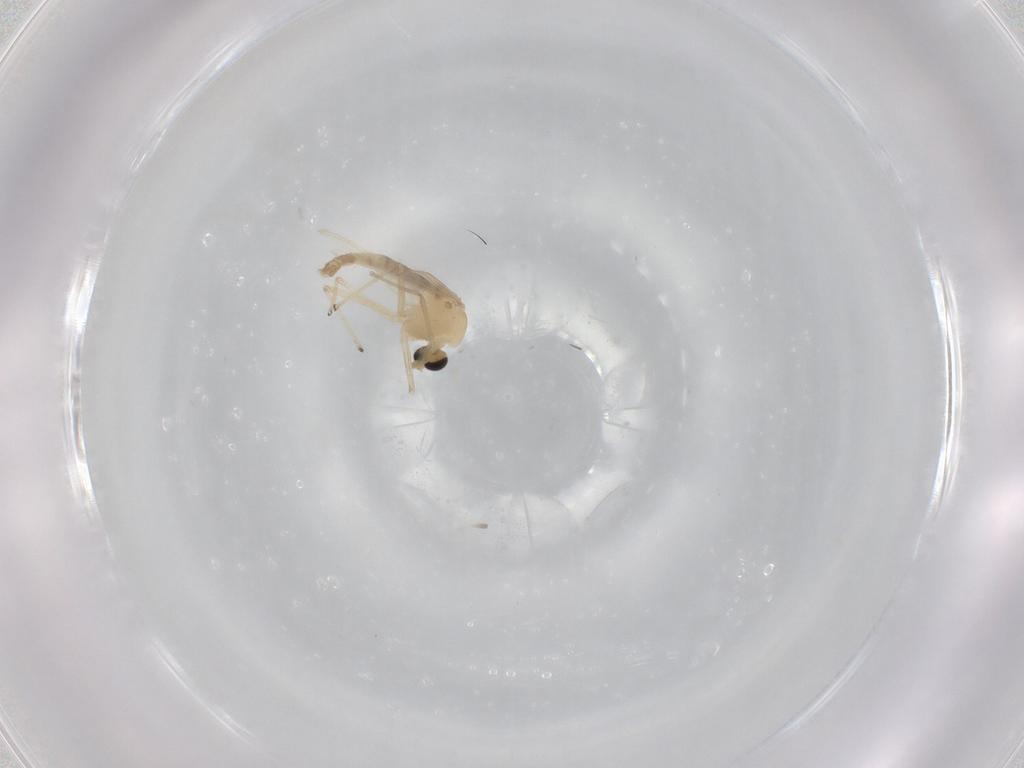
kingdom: Animalia
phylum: Arthropoda
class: Insecta
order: Diptera
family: Chironomidae
